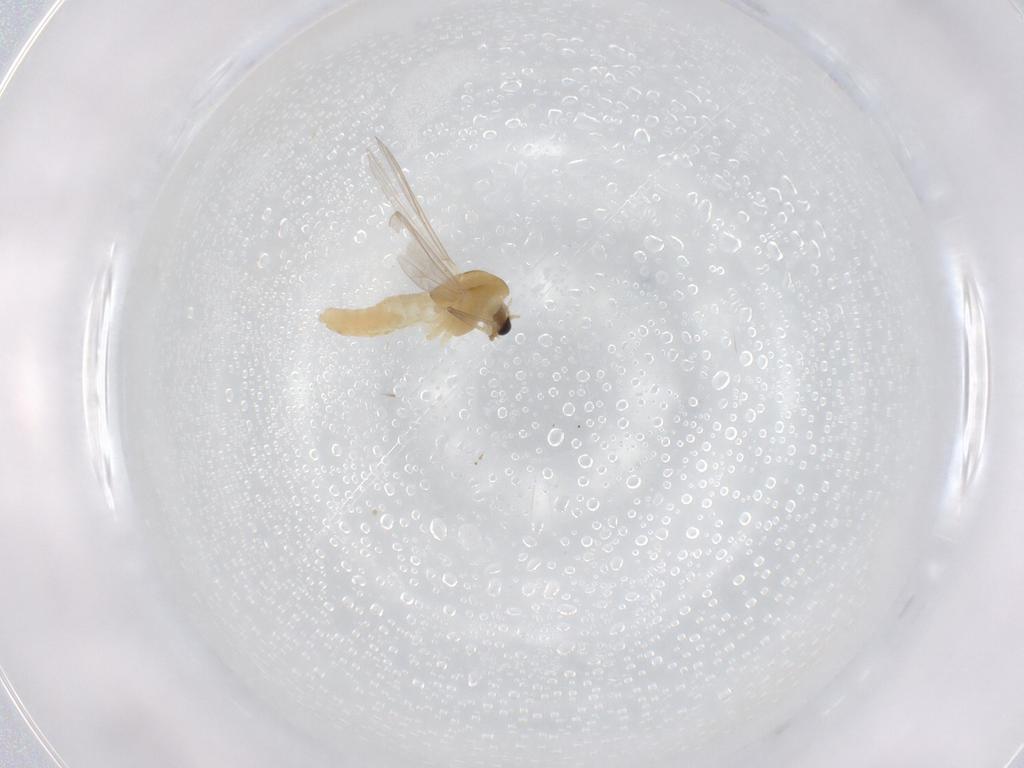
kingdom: Animalia
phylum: Arthropoda
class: Insecta
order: Diptera
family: Chironomidae
